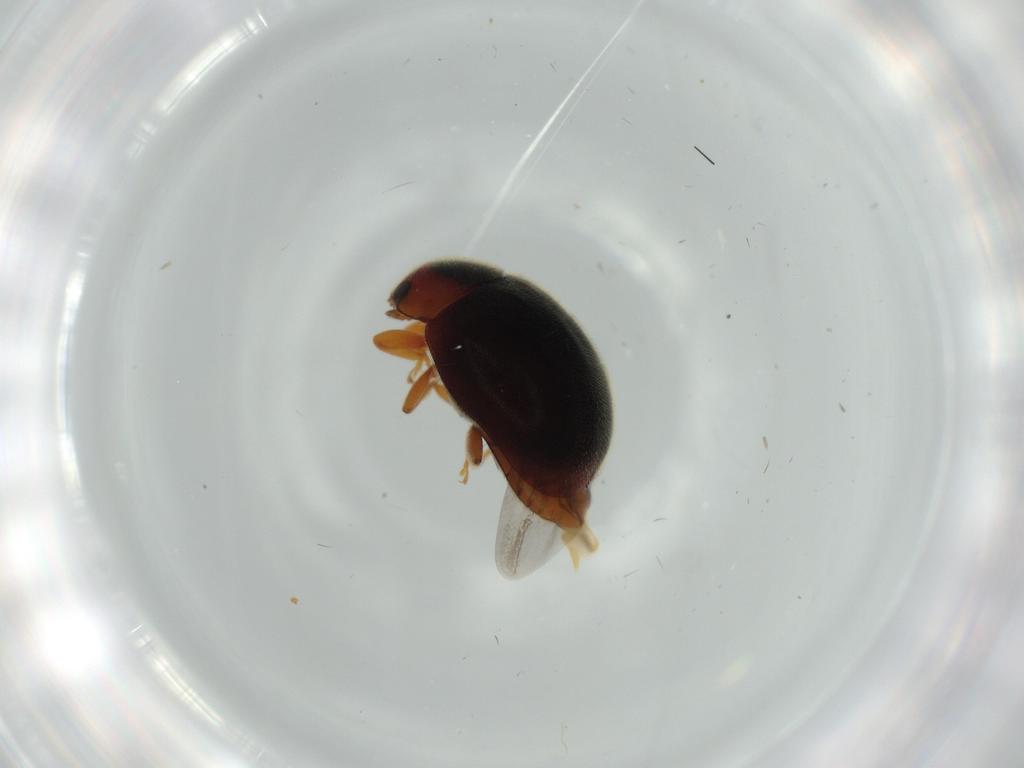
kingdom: Animalia
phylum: Arthropoda
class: Insecta
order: Coleoptera
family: Coccinellidae
